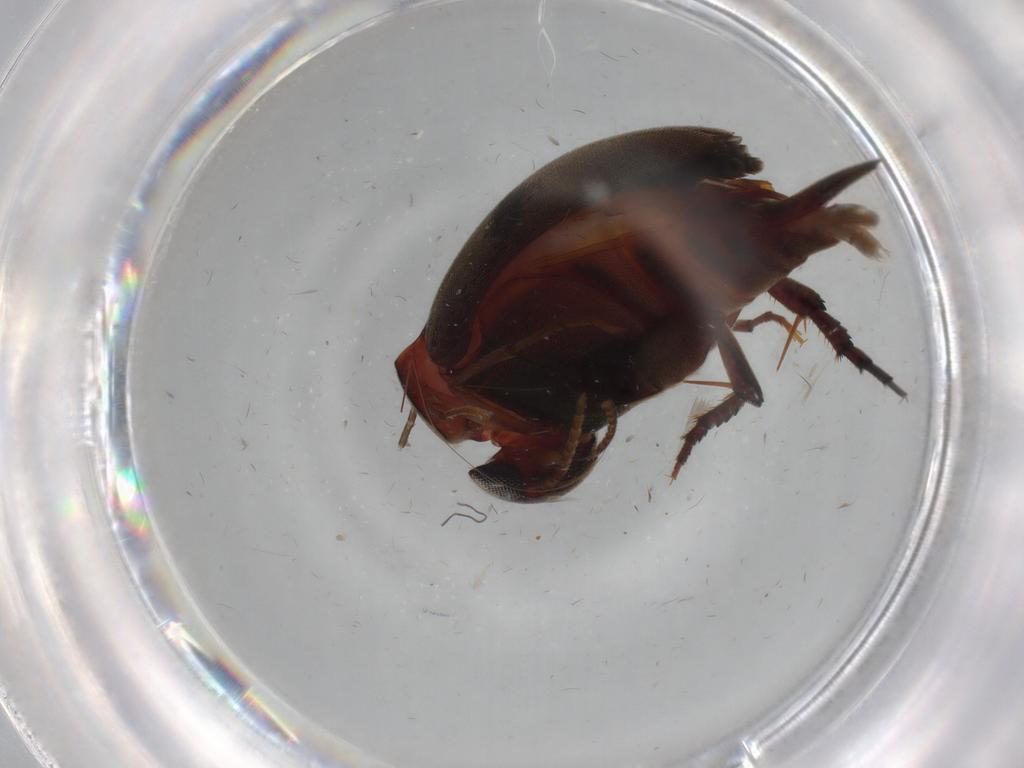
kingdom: Animalia
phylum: Arthropoda
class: Insecta
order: Coleoptera
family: Mordellidae
